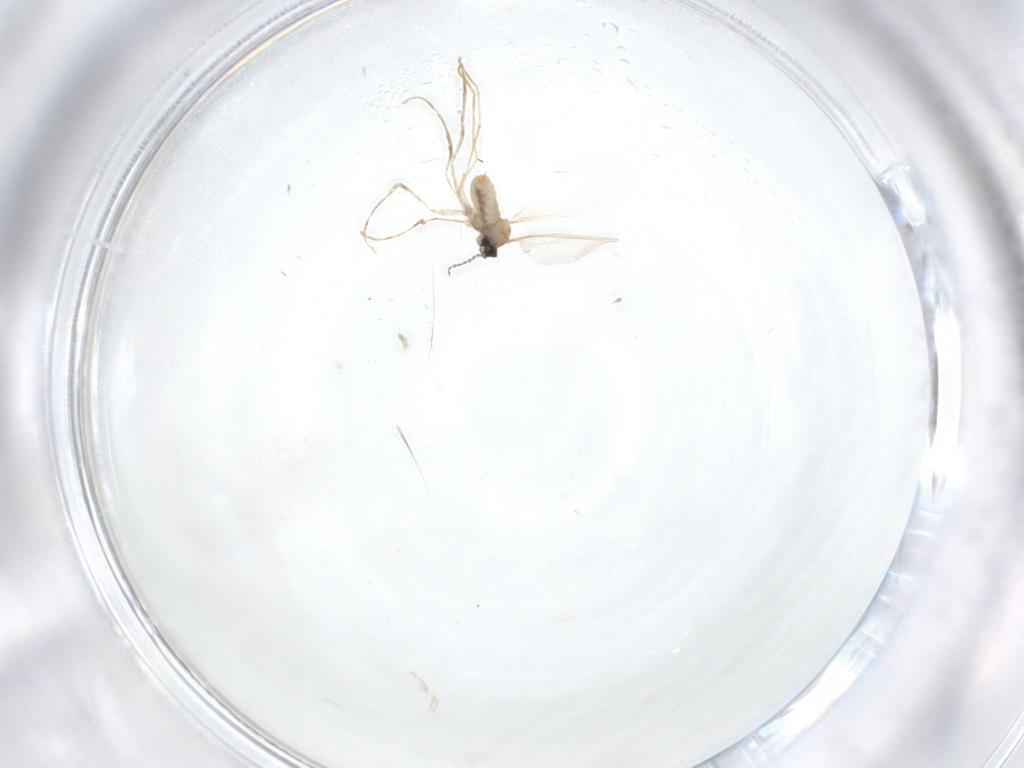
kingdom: Animalia
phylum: Arthropoda
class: Insecta
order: Diptera
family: Cecidomyiidae
